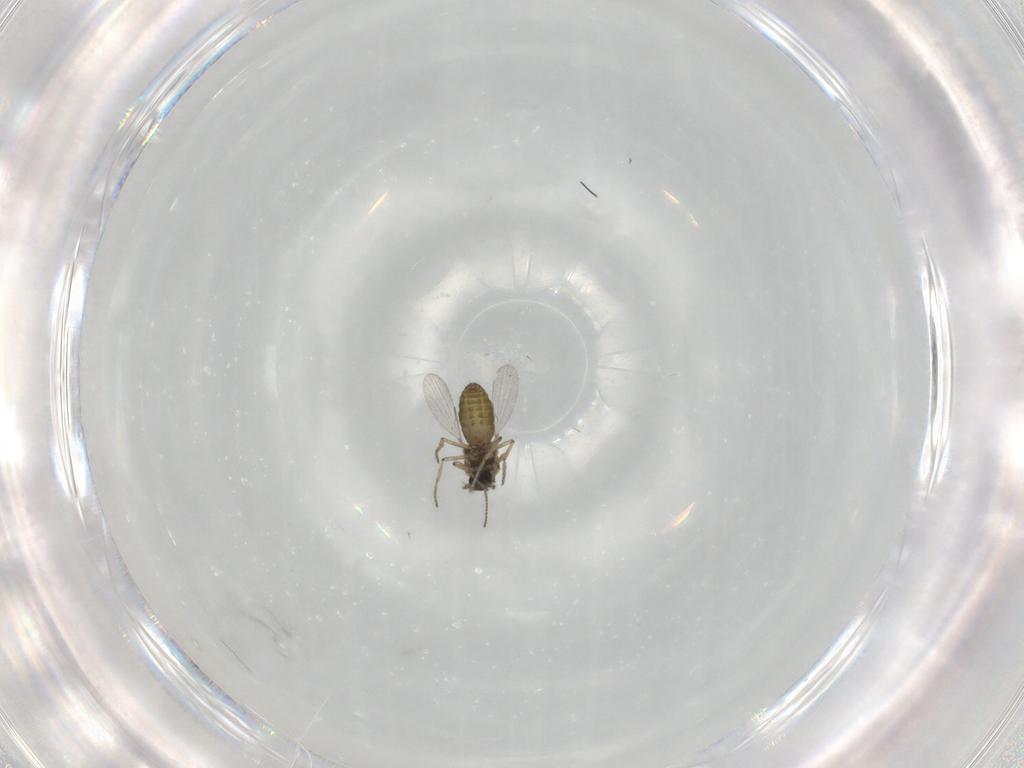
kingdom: Animalia
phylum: Arthropoda
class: Insecta
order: Diptera
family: Ceratopogonidae
